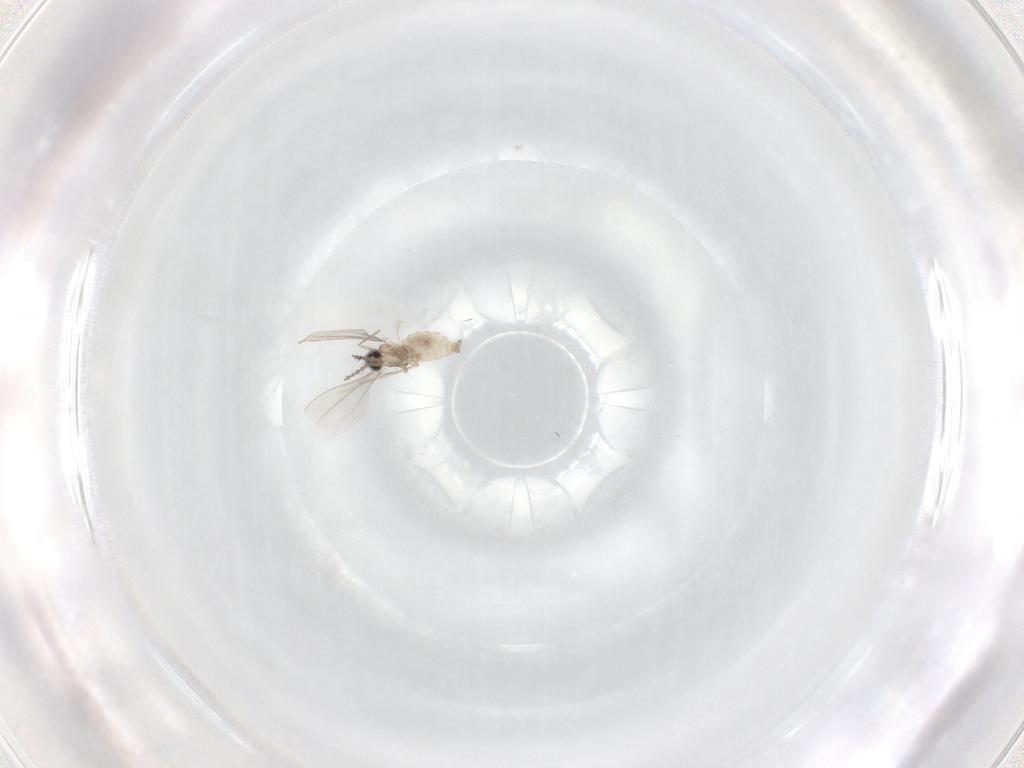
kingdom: Animalia
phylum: Arthropoda
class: Insecta
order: Diptera
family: Cecidomyiidae
